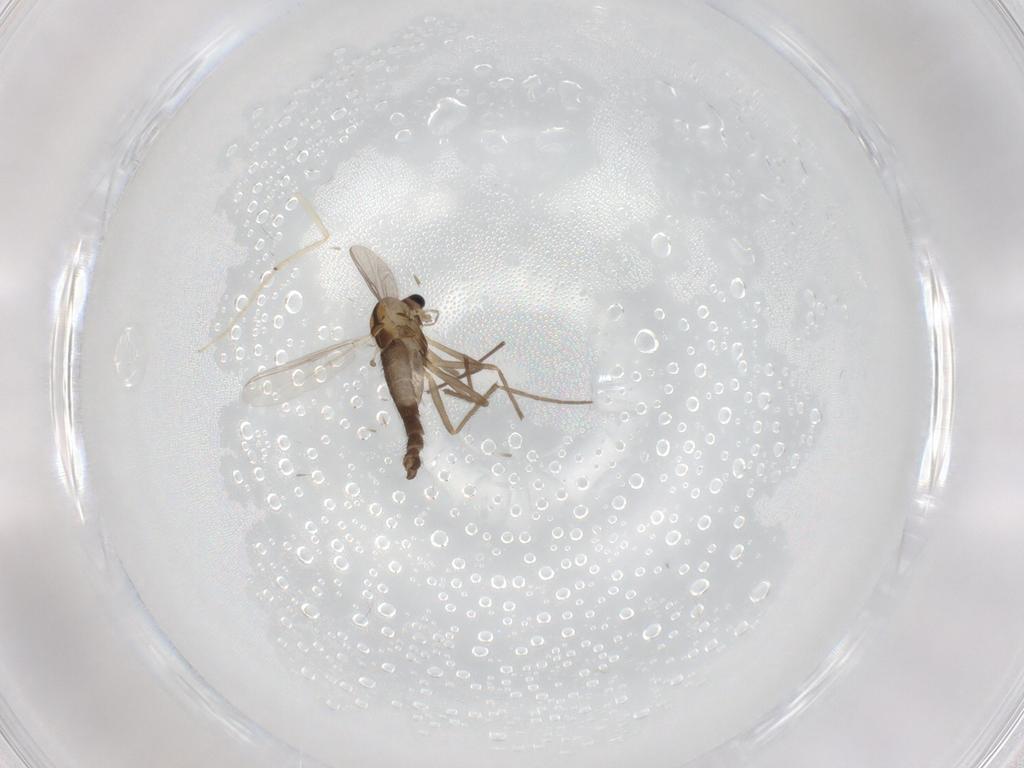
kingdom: Animalia
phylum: Arthropoda
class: Insecta
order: Diptera
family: Chironomidae
